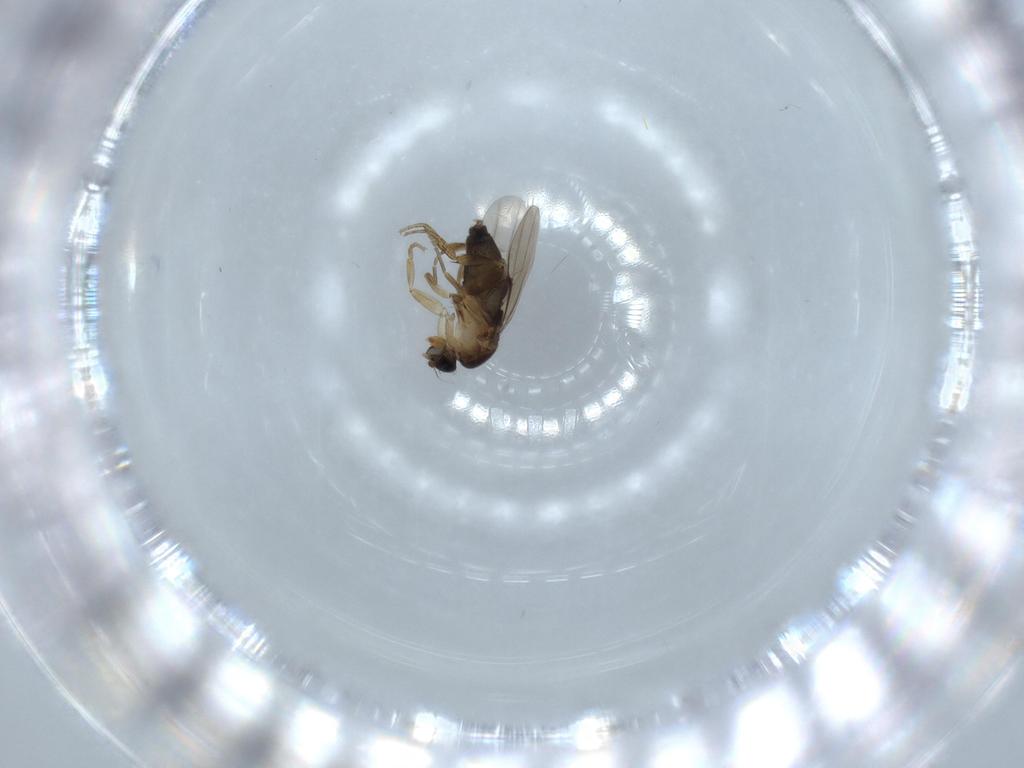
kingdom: Animalia
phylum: Arthropoda
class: Insecta
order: Diptera
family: Phoridae
